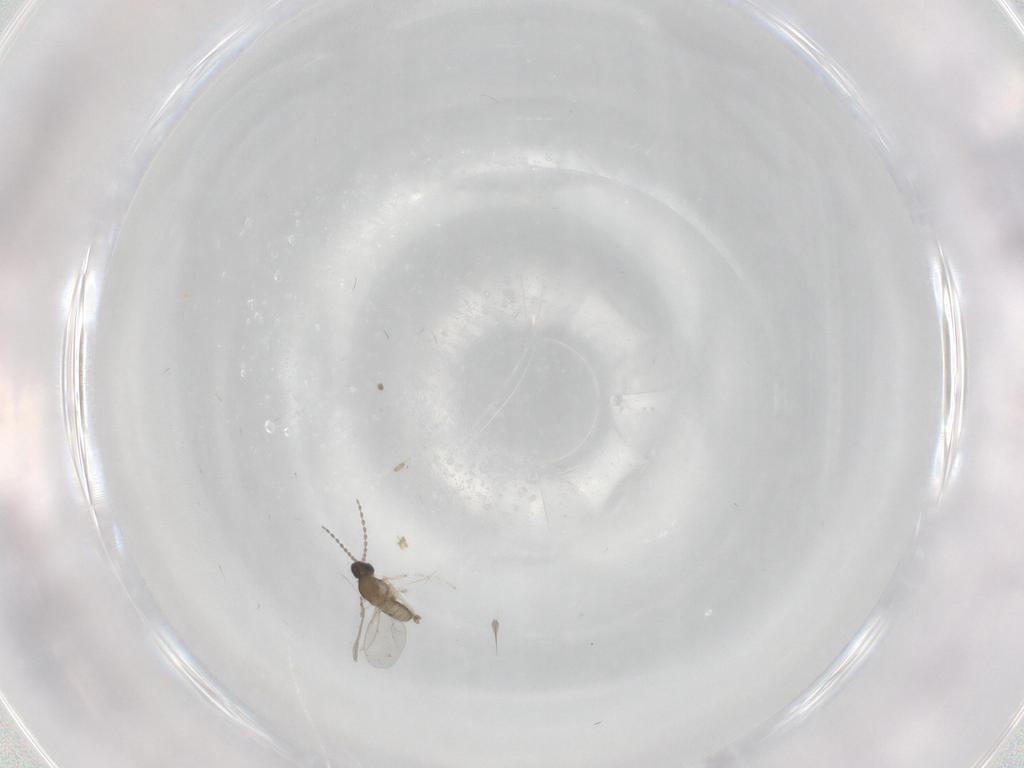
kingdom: Animalia
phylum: Arthropoda
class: Insecta
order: Diptera
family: Cecidomyiidae
